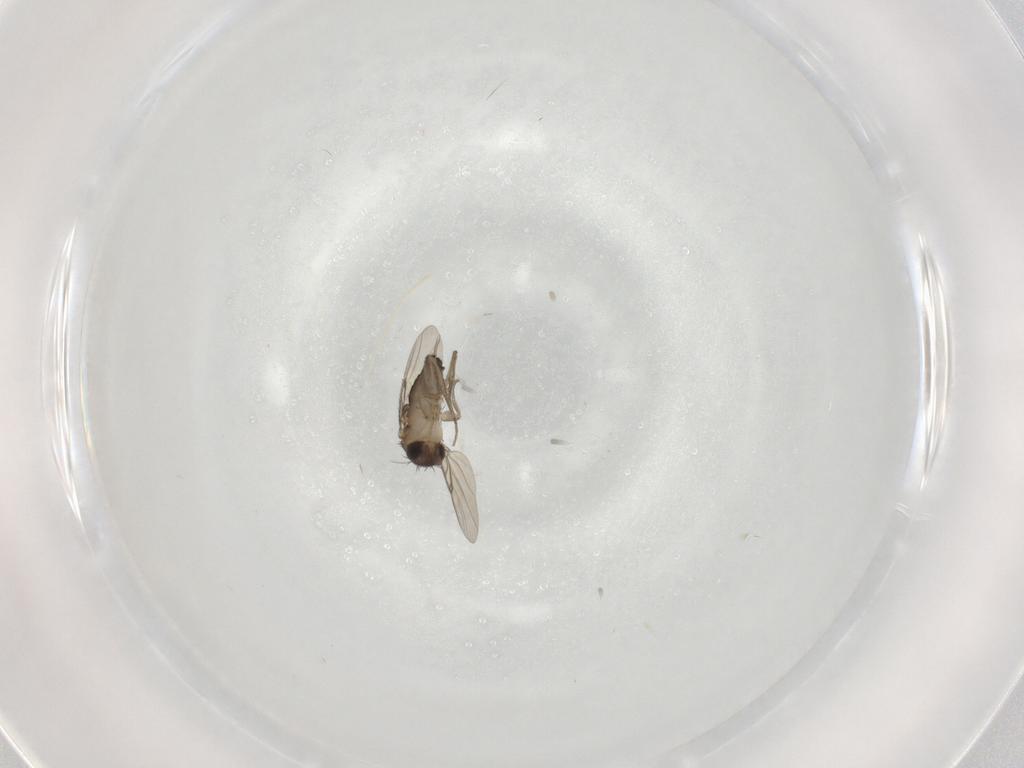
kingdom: Animalia
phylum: Arthropoda
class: Insecta
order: Diptera
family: Phoridae
